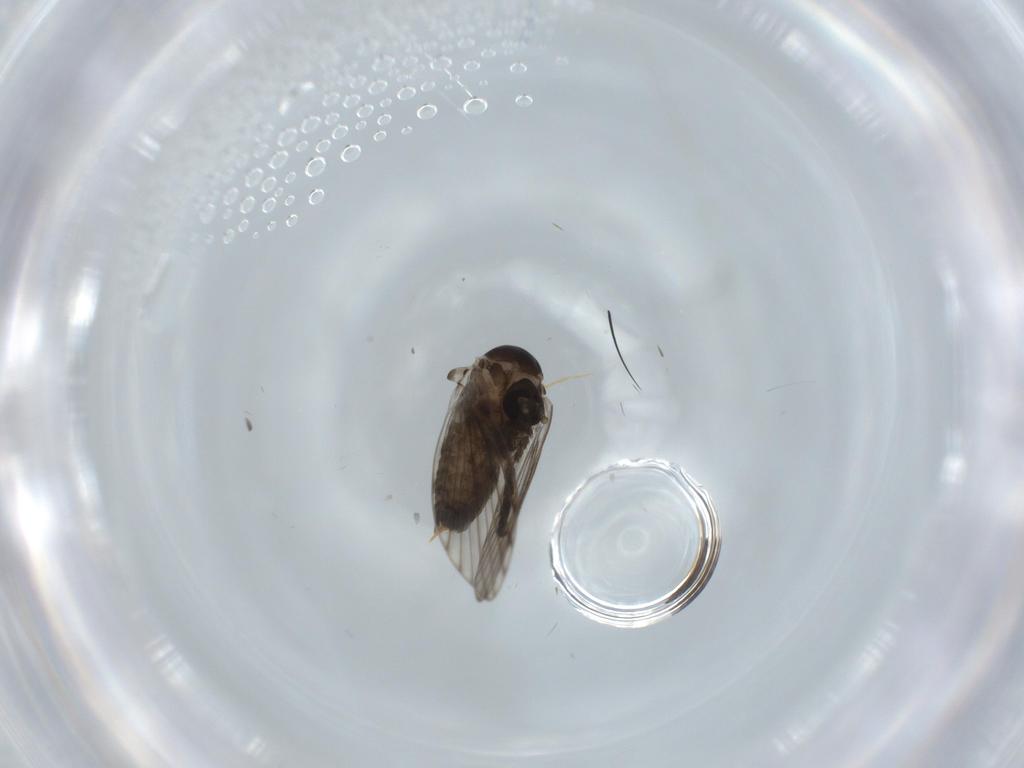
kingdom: Animalia
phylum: Arthropoda
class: Insecta
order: Diptera
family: Psychodidae
